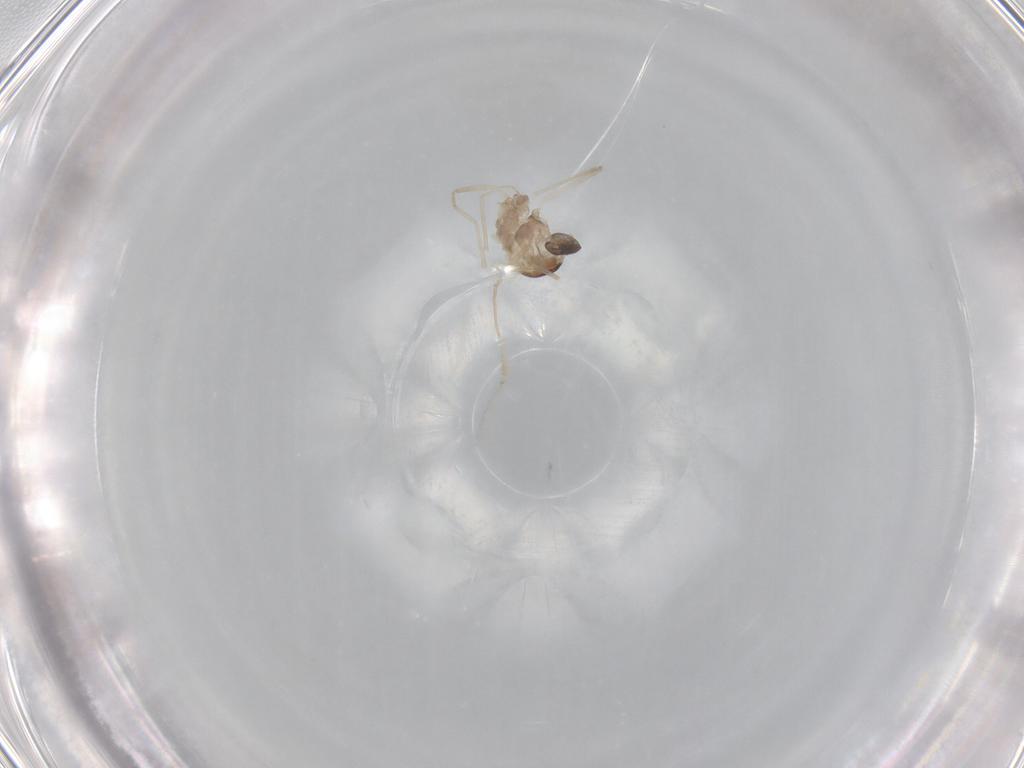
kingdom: Animalia
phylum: Arthropoda
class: Insecta
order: Diptera
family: Cecidomyiidae
